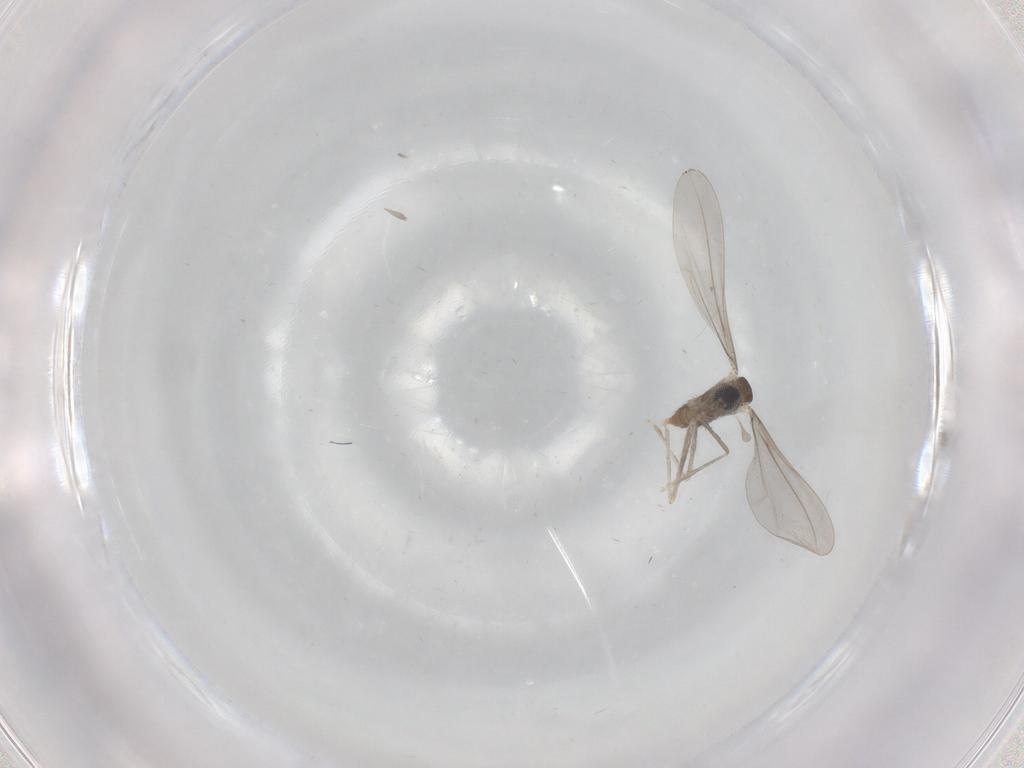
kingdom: Animalia
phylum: Arthropoda
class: Insecta
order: Diptera
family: Cecidomyiidae
